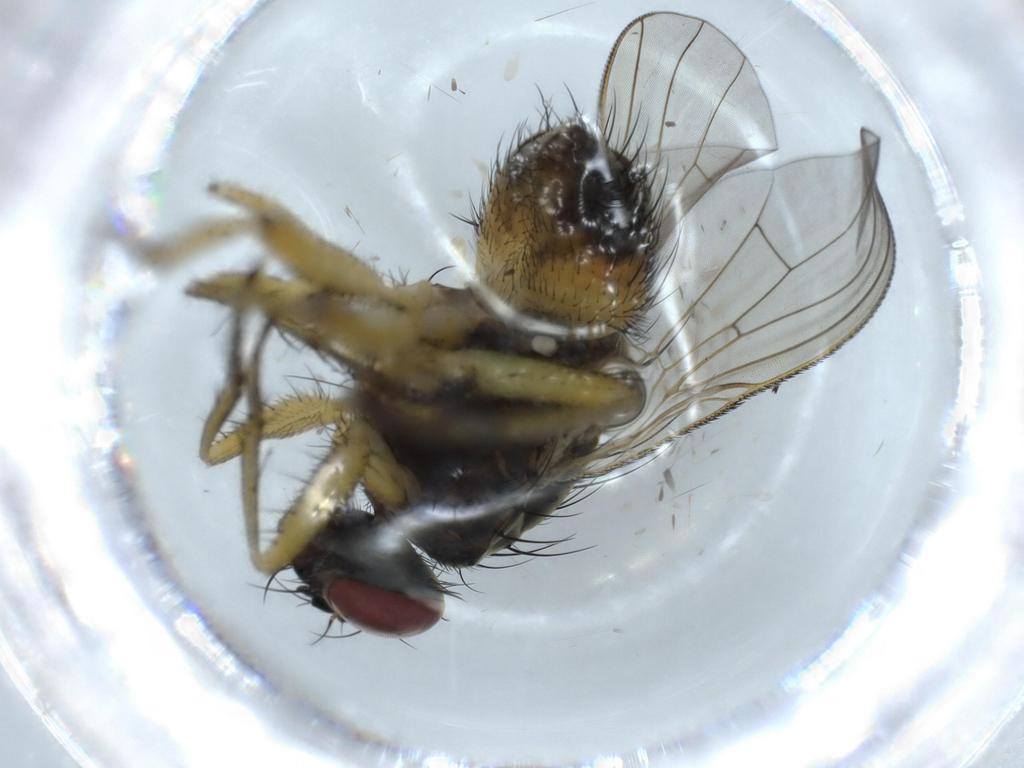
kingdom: Animalia
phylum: Arthropoda
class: Insecta
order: Diptera
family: Muscidae
